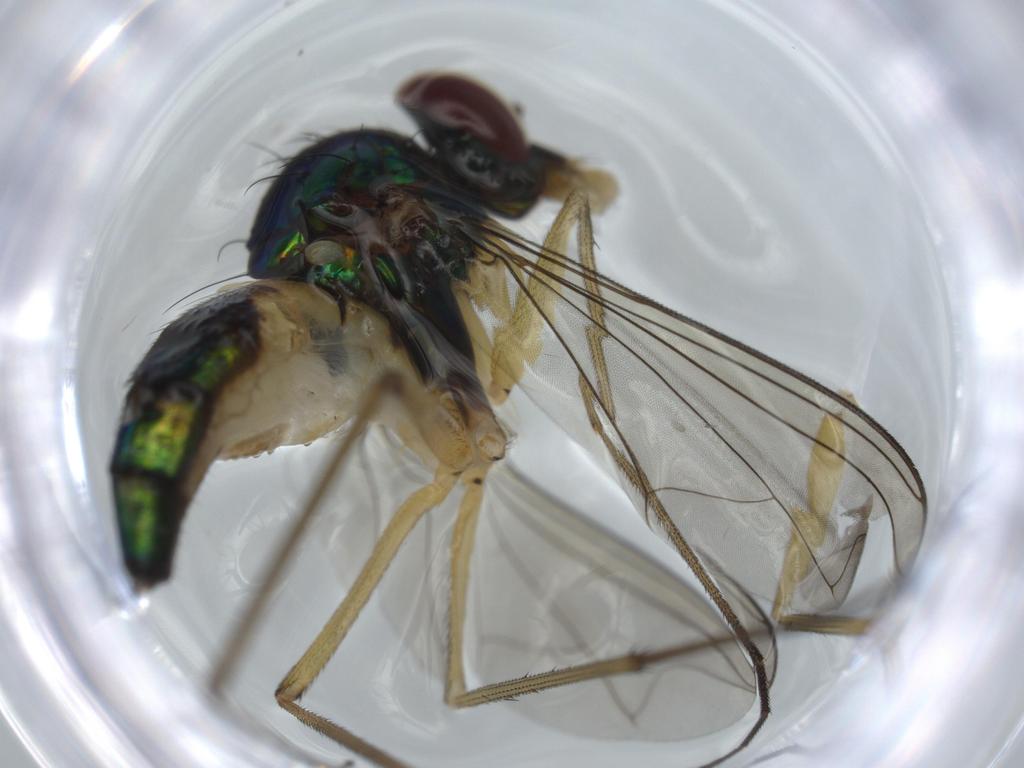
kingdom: Animalia
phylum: Arthropoda
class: Insecta
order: Diptera
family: Dolichopodidae
